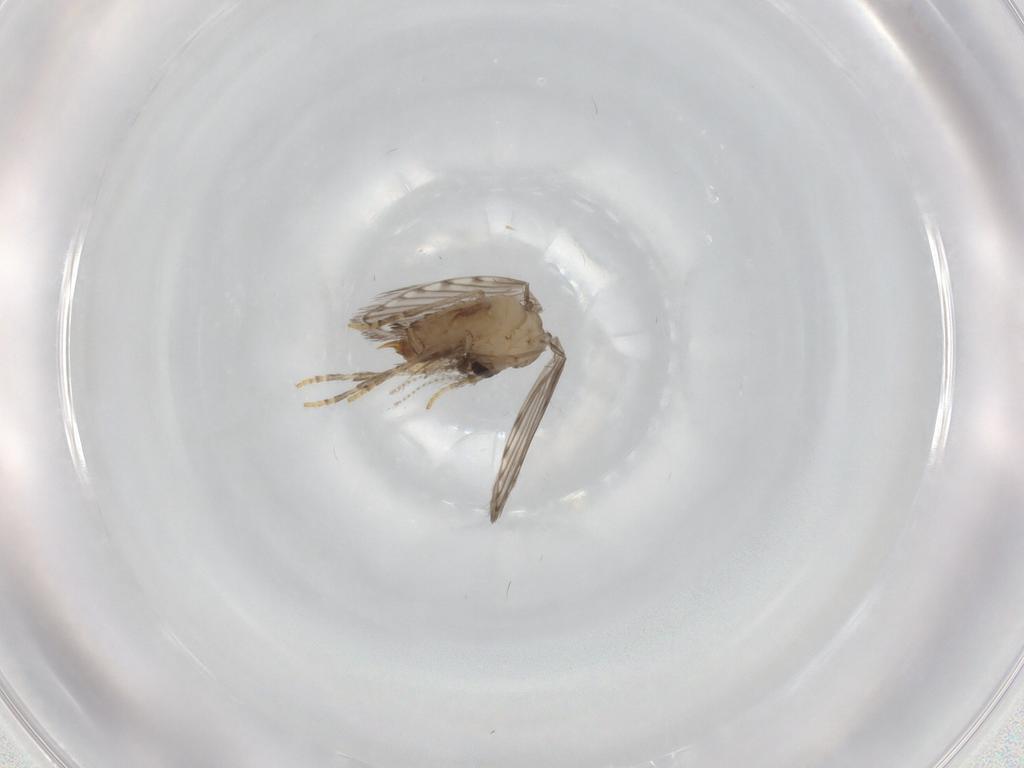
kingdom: Animalia
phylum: Arthropoda
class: Insecta
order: Diptera
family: Psychodidae
